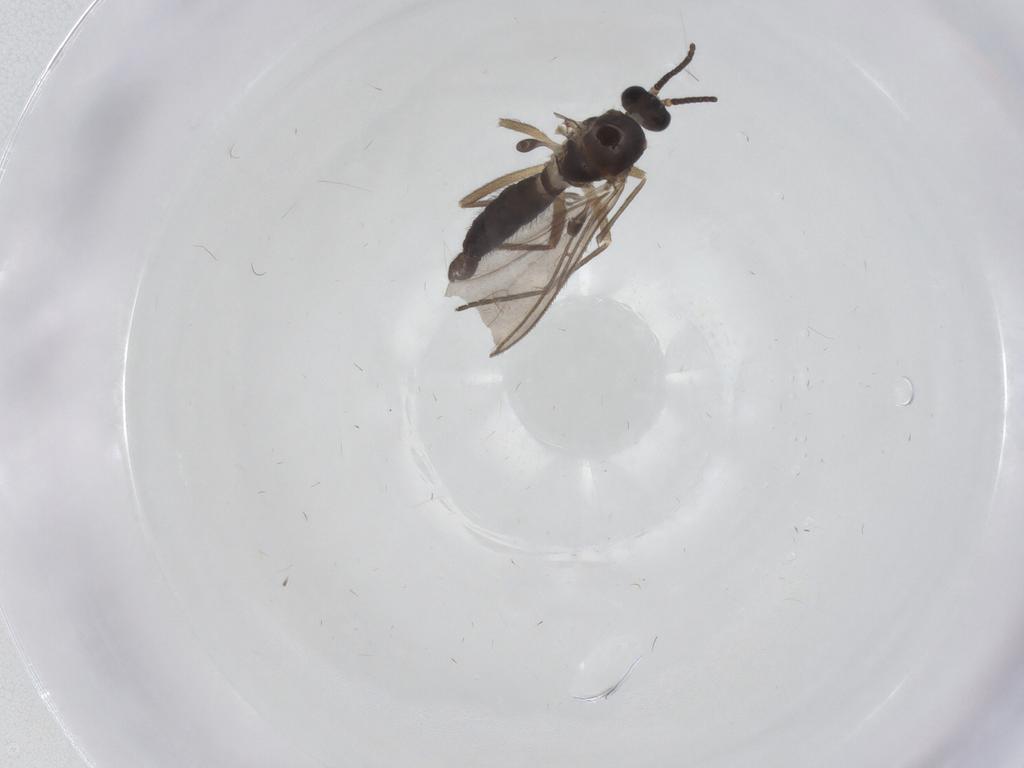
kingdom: Animalia
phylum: Arthropoda
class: Insecta
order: Diptera
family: Sciaridae
